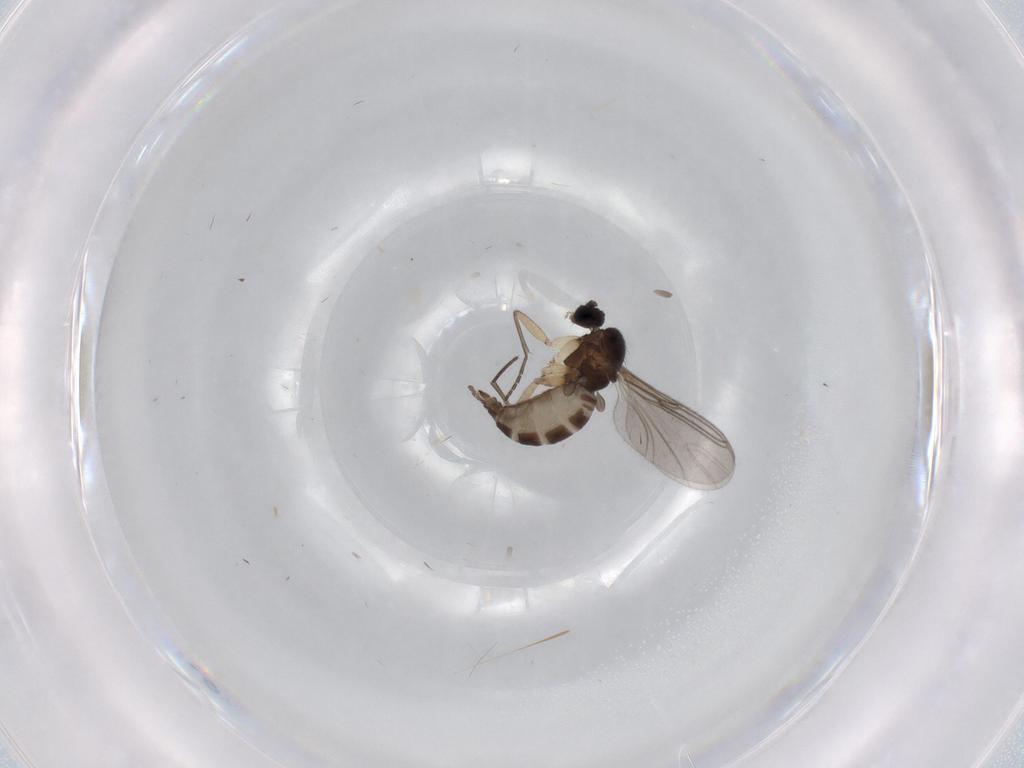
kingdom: Animalia
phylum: Arthropoda
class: Insecta
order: Diptera
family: Sciaridae
